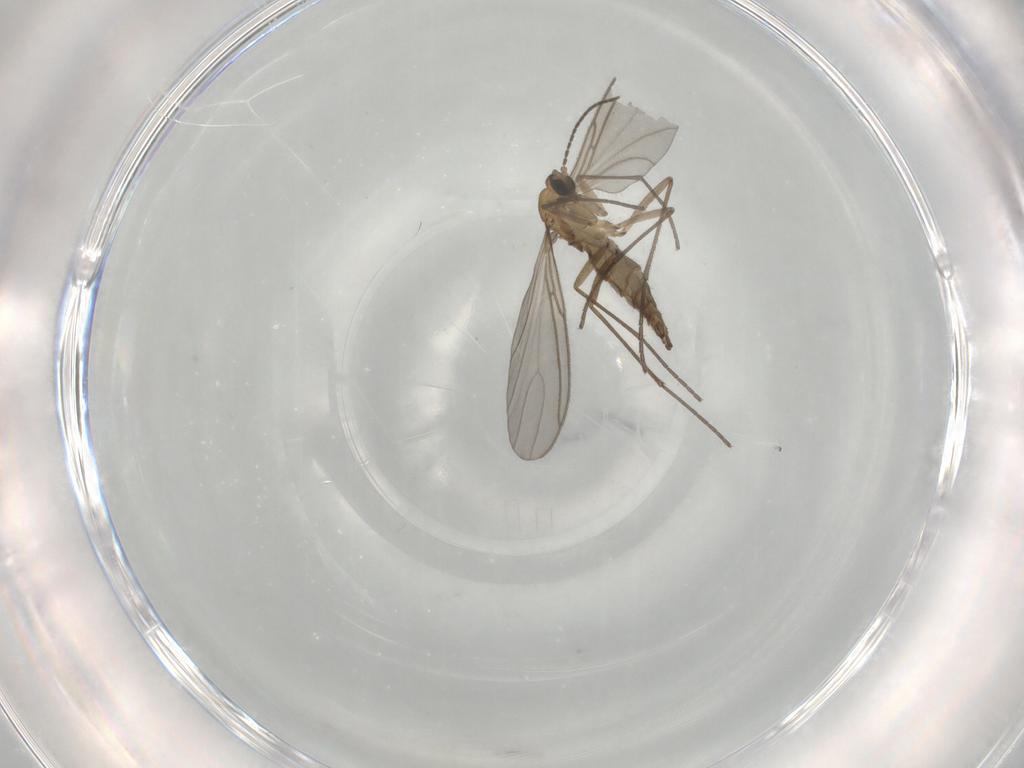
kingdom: Animalia
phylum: Arthropoda
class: Insecta
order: Diptera
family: Sciaridae
